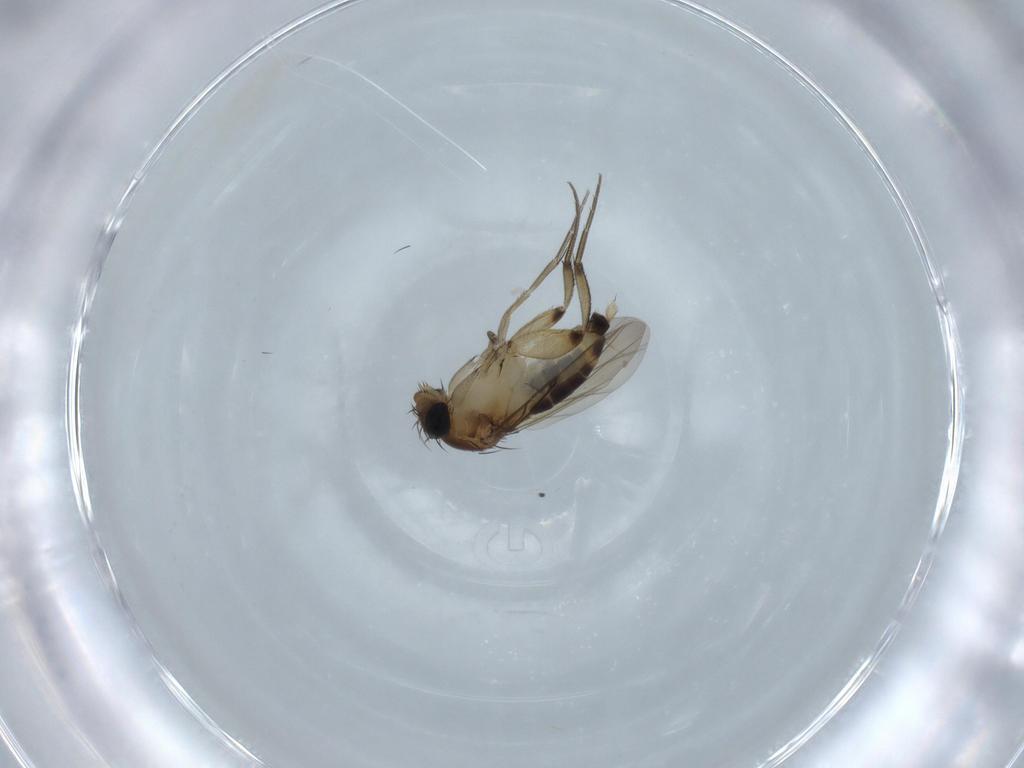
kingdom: Animalia
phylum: Arthropoda
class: Insecta
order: Diptera
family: Phoridae
